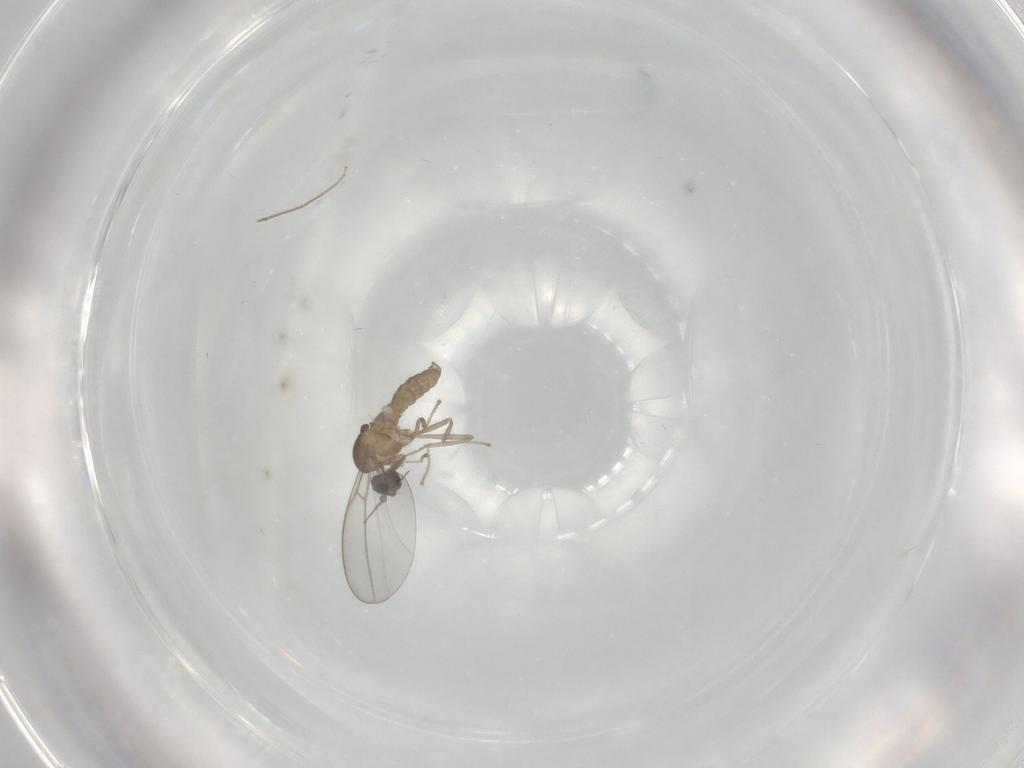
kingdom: Animalia
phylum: Arthropoda
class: Insecta
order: Diptera
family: Cecidomyiidae
